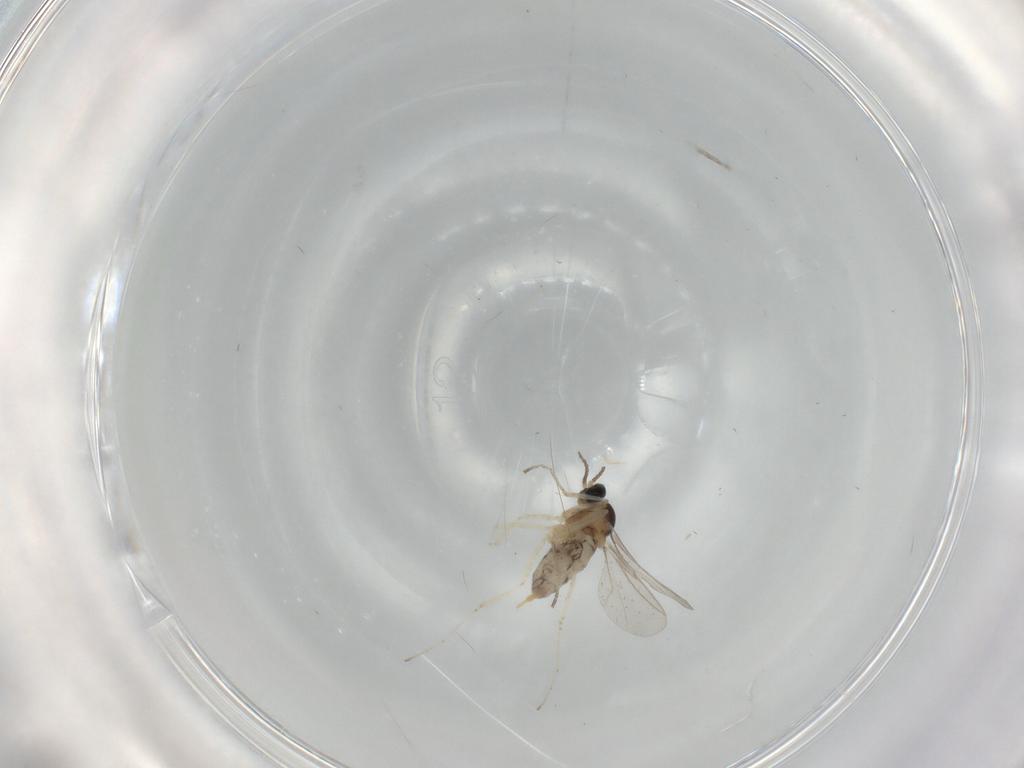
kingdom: Animalia
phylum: Arthropoda
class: Insecta
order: Diptera
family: Stratiomyidae
